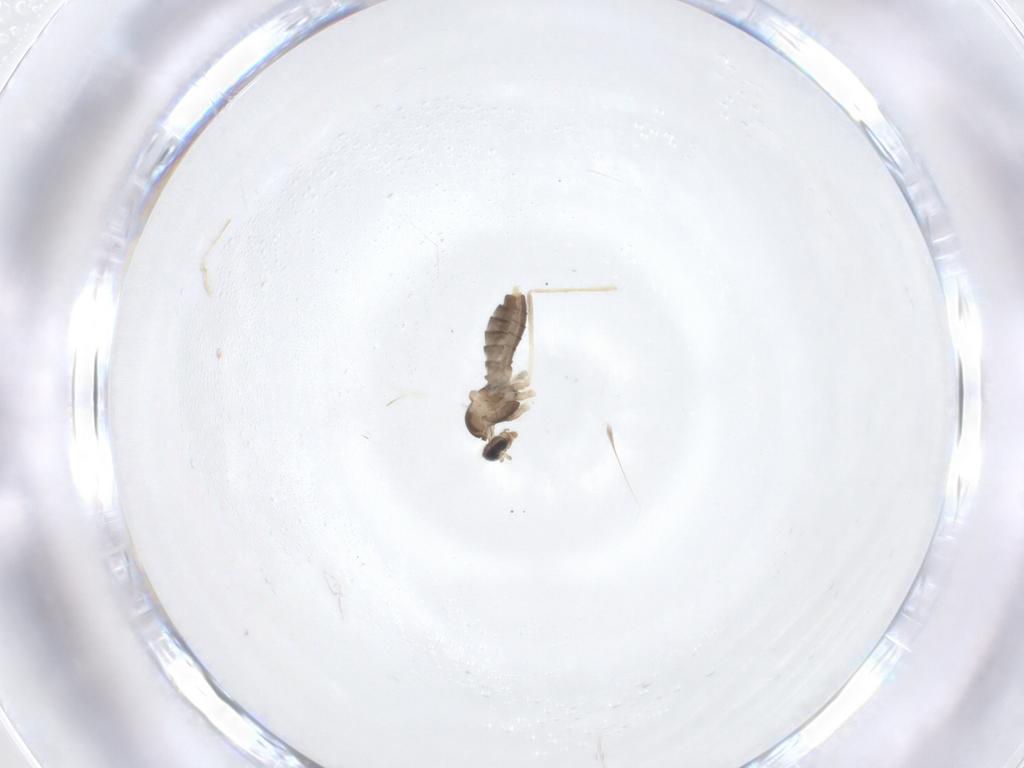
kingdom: Animalia
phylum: Arthropoda
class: Insecta
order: Diptera
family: Cecidomyiidae
